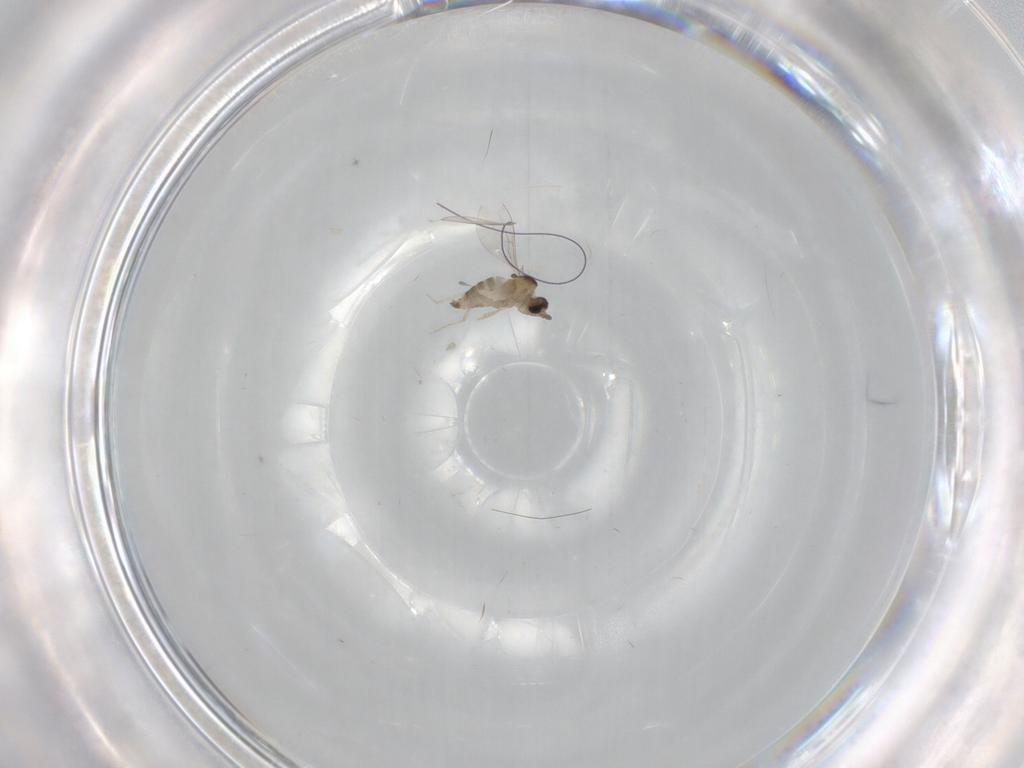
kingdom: Animalia
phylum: Arthropoda
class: Insecta
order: Diptera
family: Cecidomyiidae
